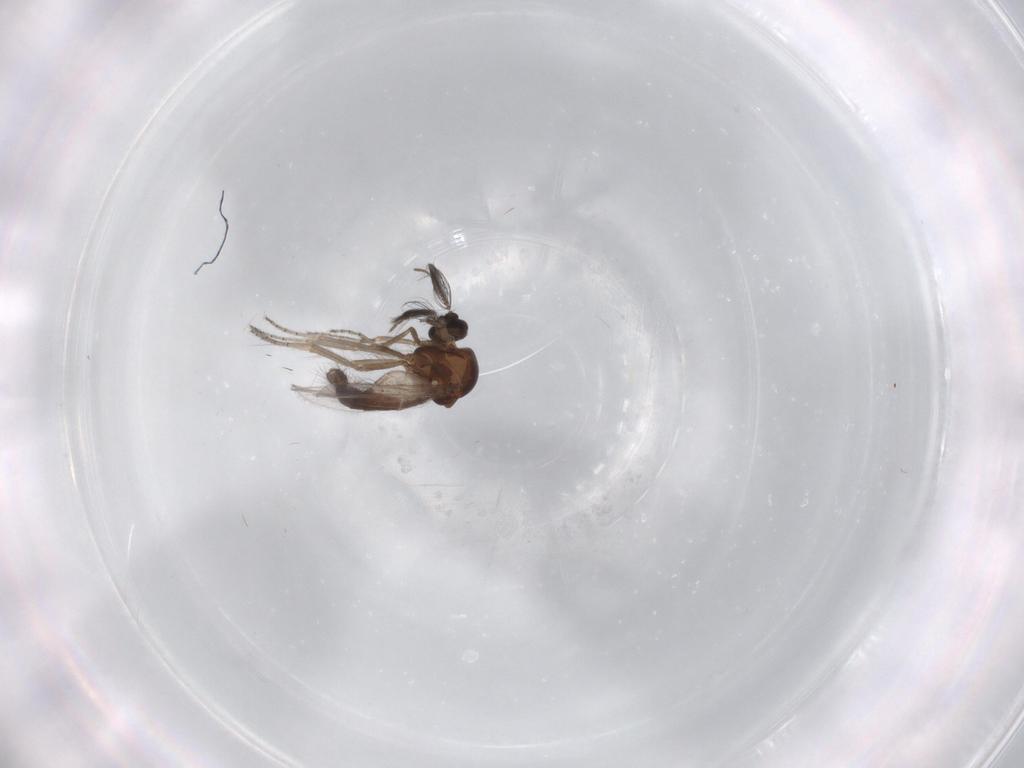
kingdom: Animalia
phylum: Arthropoda
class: Insecta
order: Diptera
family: Ceratopogonidae
